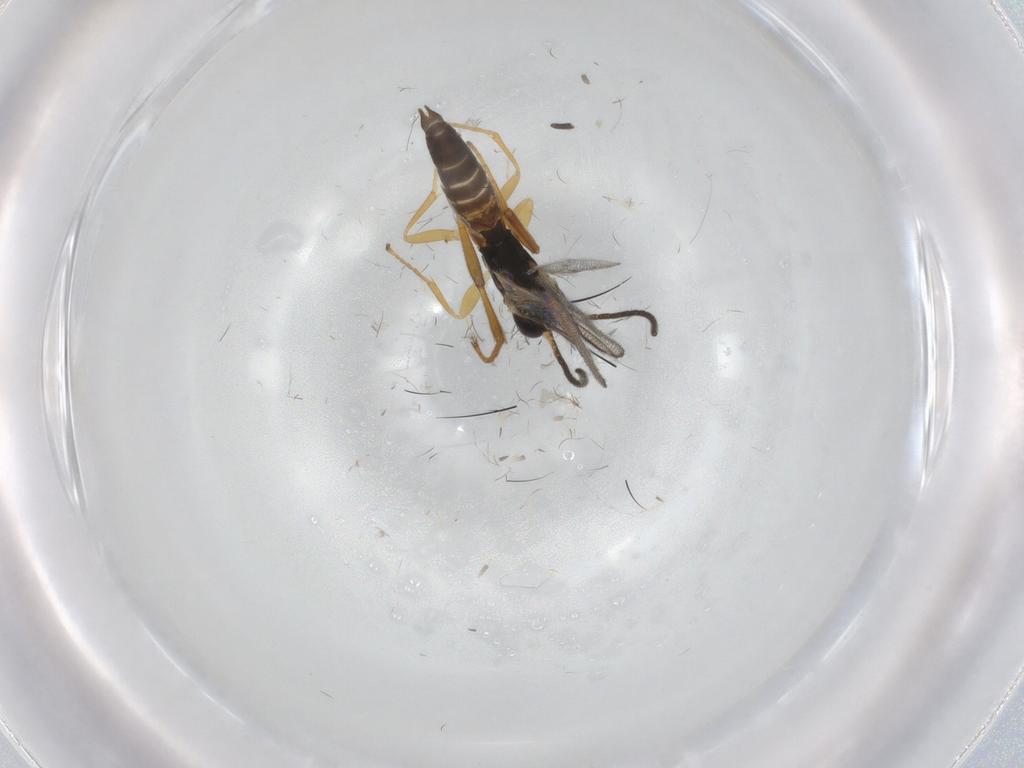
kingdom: Animalia
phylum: Arthropoda
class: Insecta
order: Hymenoptera
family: Ichneumonidae
